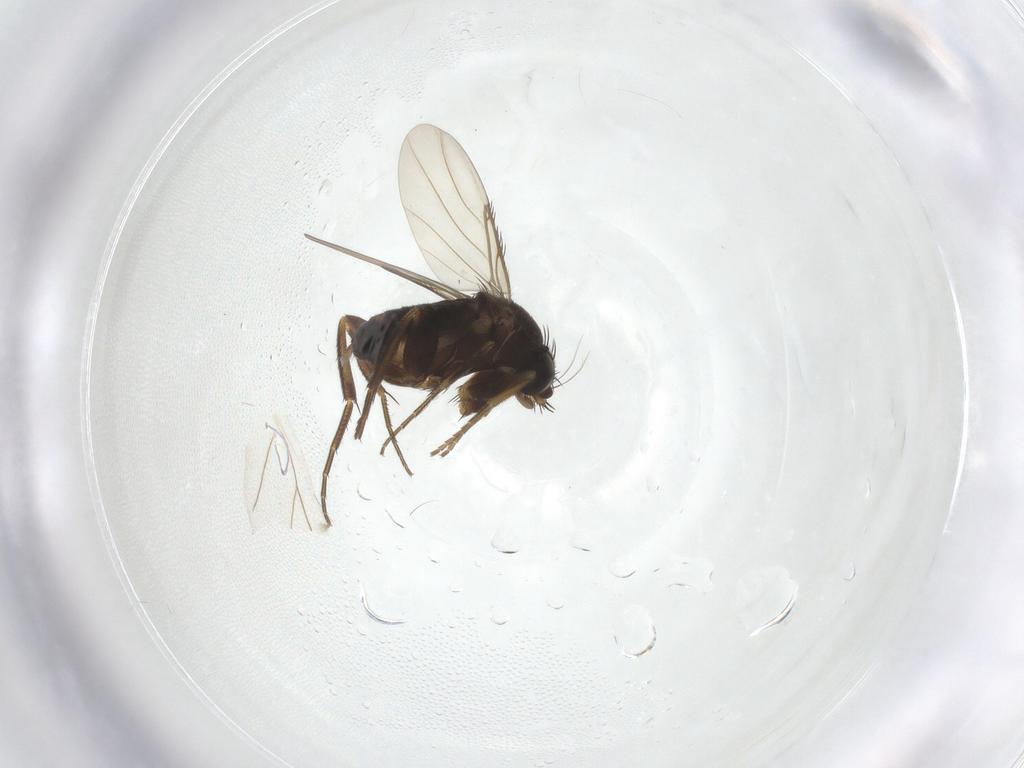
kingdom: Animalia
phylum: Arthropoda
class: Insecta
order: Diptera
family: Phoridae
